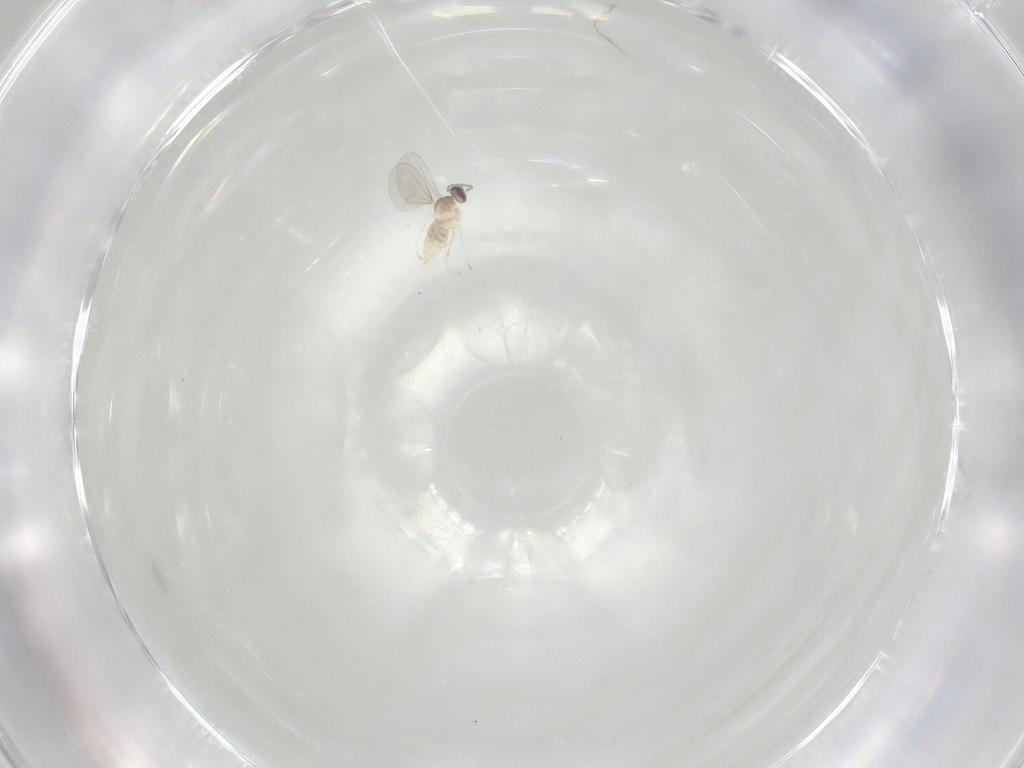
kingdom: Animalia
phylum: Arthropoda
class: Insecta
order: Diptera
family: Cecidomyiidae
